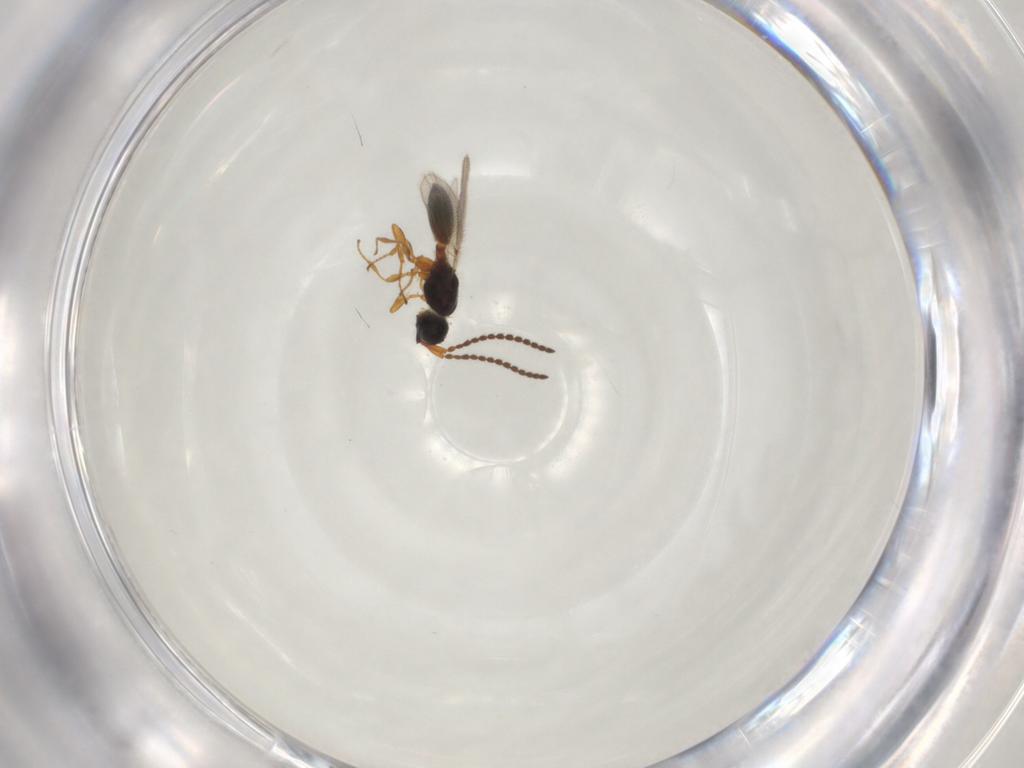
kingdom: Animalia
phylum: Arthropoda
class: Insecta
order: Hymenoptera
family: Diapriidae
